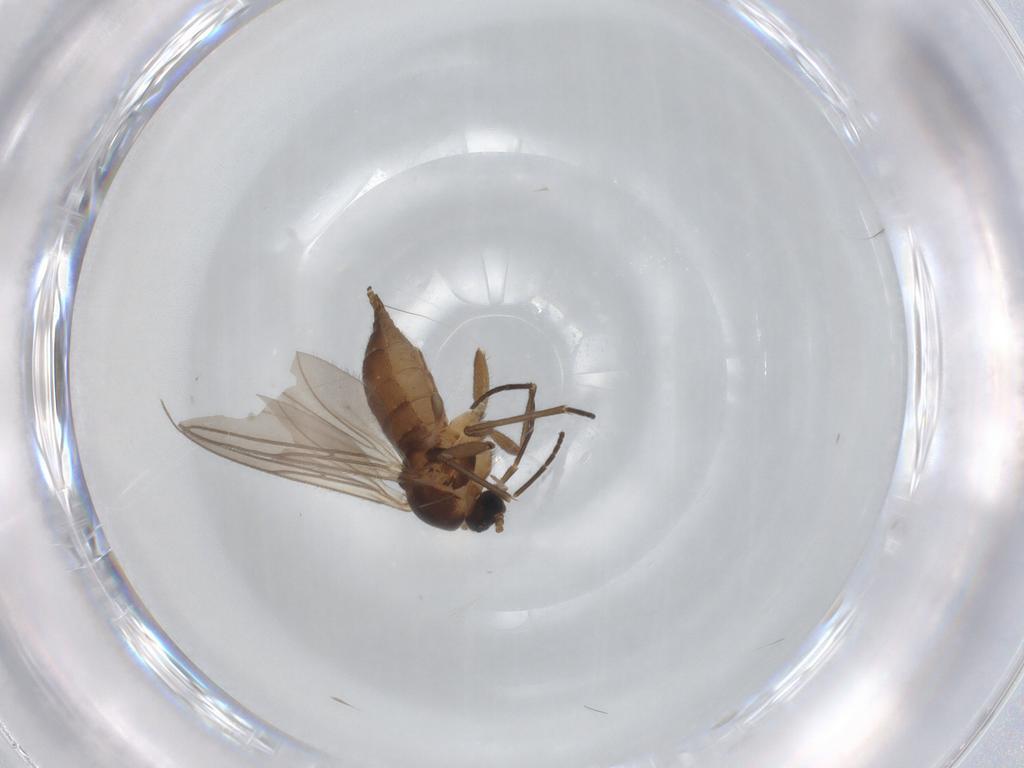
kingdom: Animalia
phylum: Arthropoda
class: Insecta
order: Diptera
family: Sciaridae
